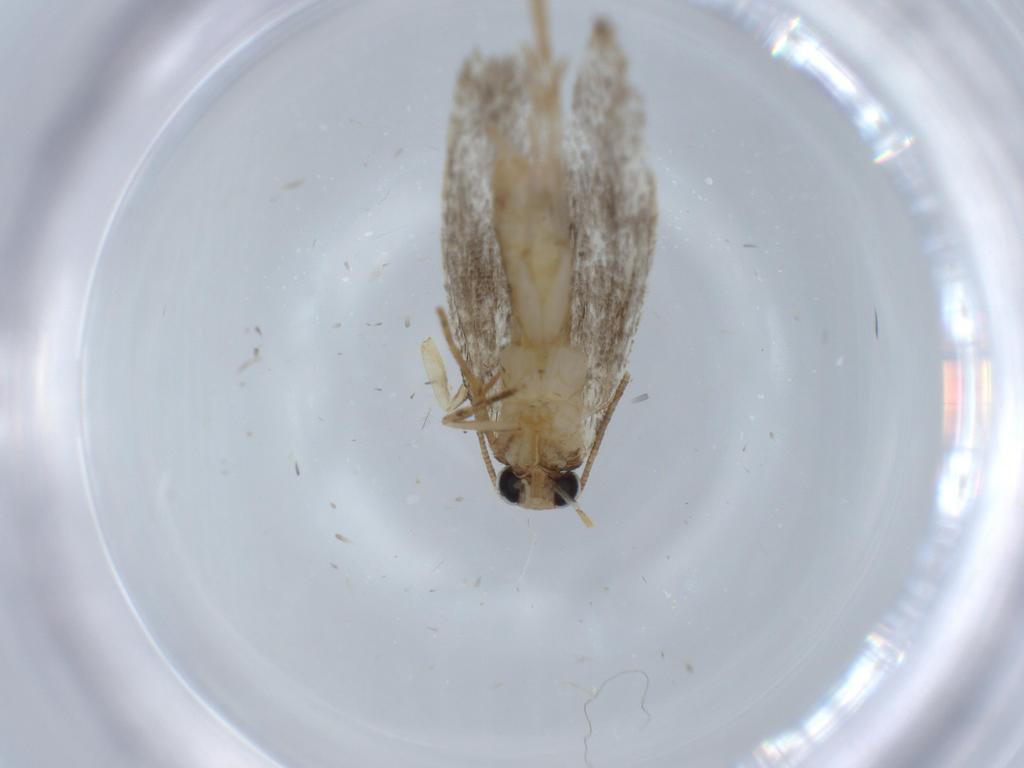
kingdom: Animalia
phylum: Arthropoda
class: Insecta
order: Lepidoptera
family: Tineidae
